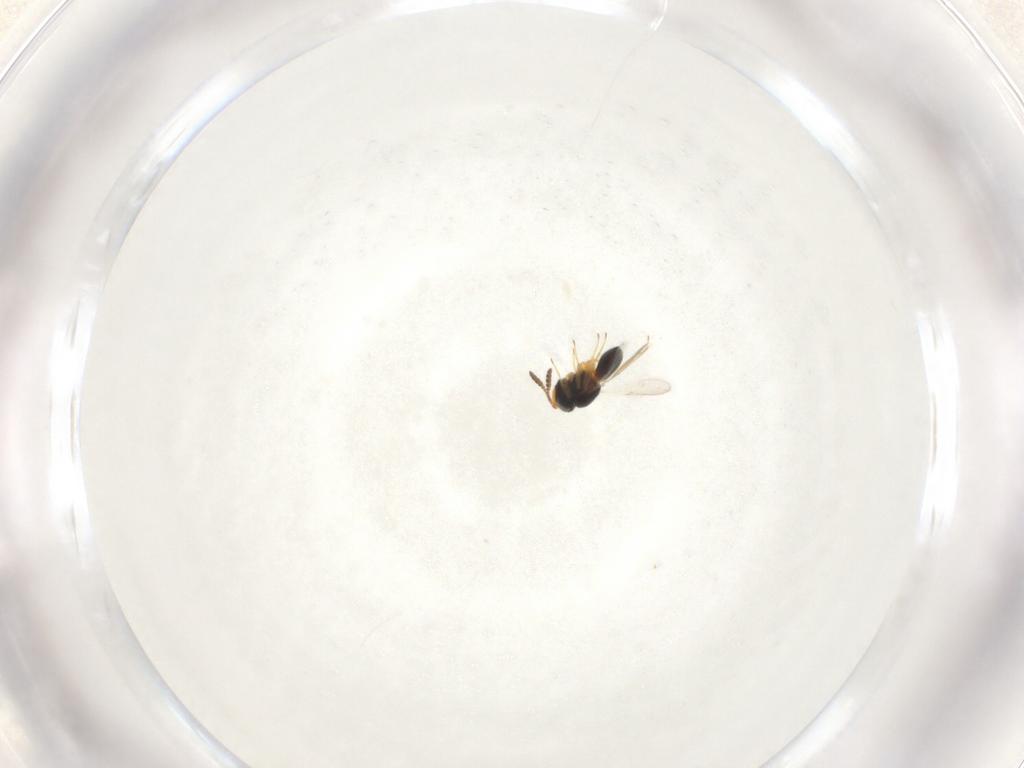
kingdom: Animalia
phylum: Arthropoda
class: Insecta
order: Hymenoptera
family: Scelionidae
